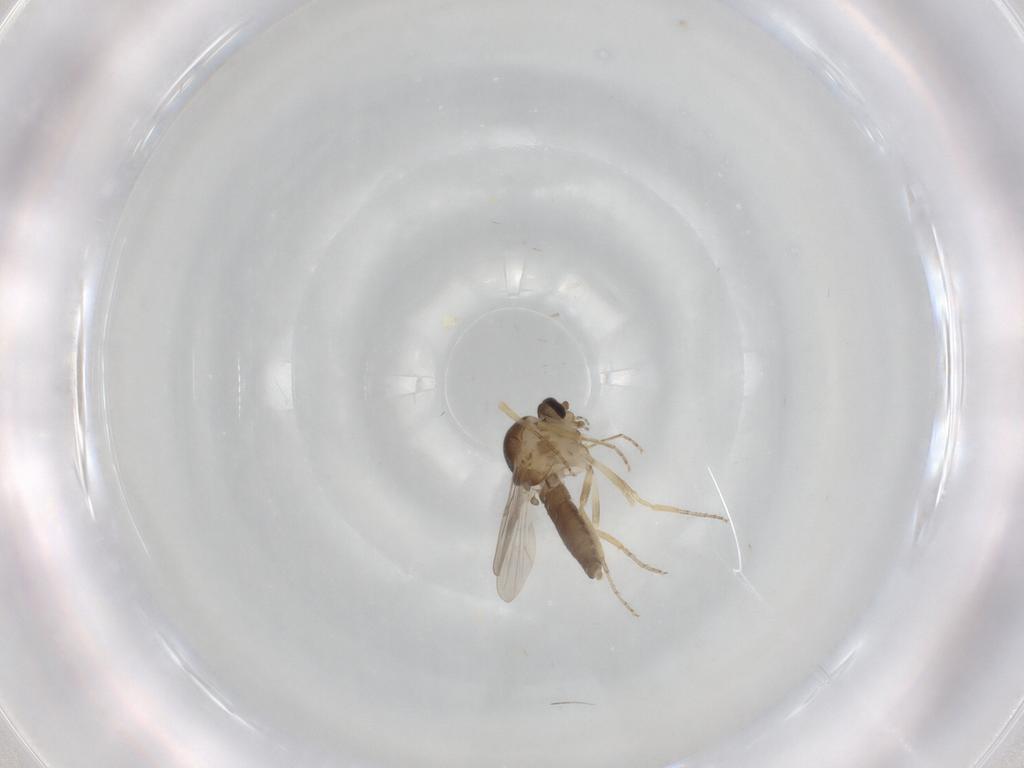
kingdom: Animalia
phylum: Arthropoda
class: Insecta
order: Diptera
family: Ceratopogonidae
